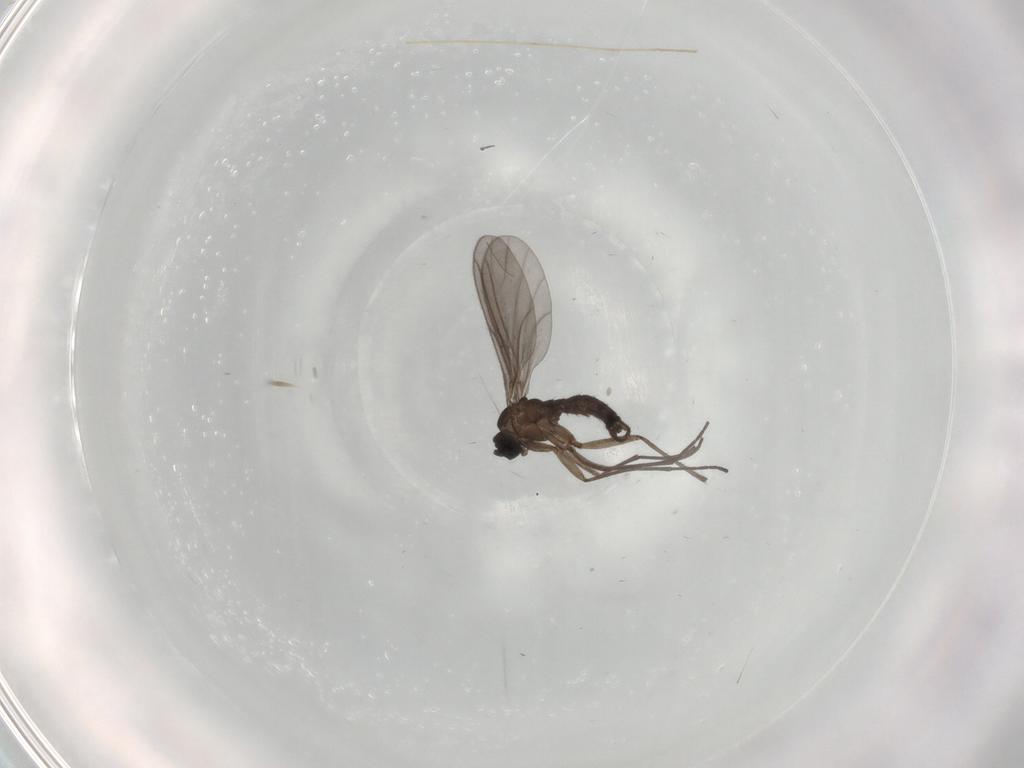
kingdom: Animalia
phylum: Arthropoda
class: Insecta
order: Diptera
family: Sciaridae
